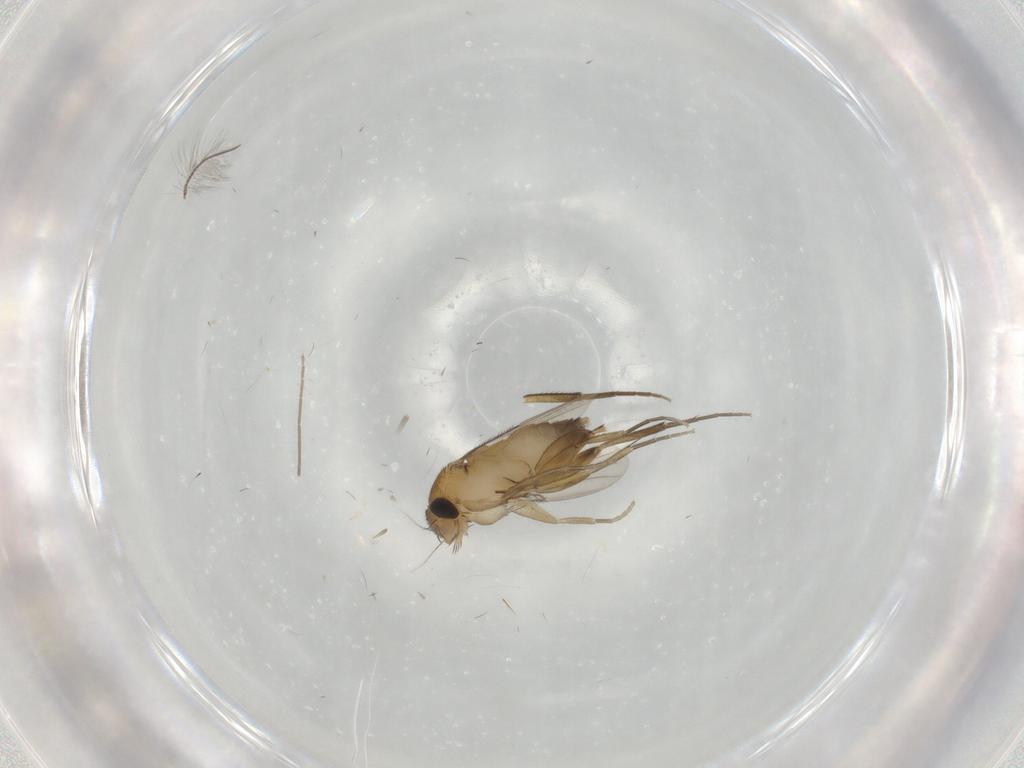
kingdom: Animalia
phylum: Arthropoda
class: Insecta
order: Diptera
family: Phoridae
